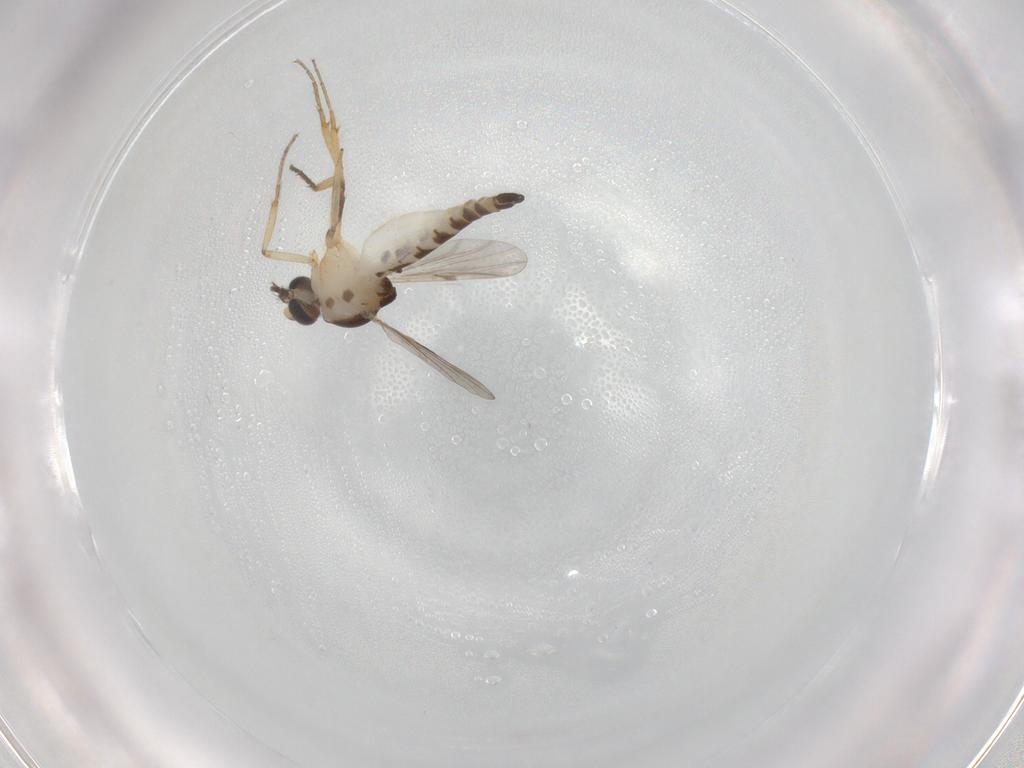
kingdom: Animalia
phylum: Arthropoda
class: Insecta
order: Diptera
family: Ceratopogonidae
